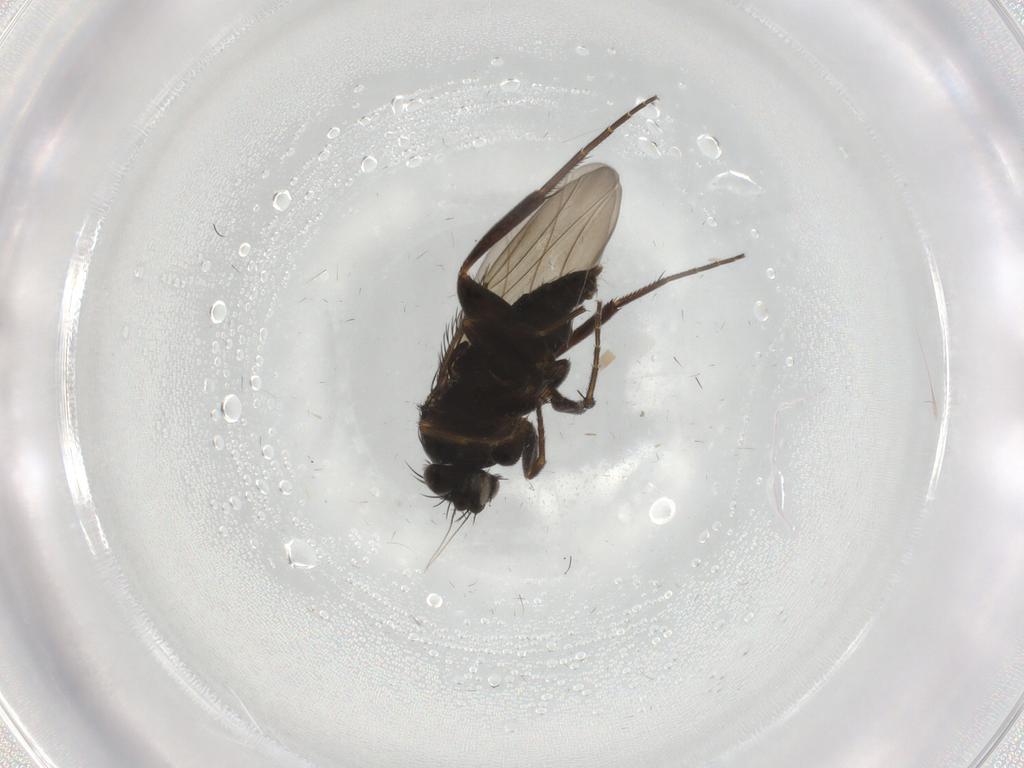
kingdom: Animalia
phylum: Arthropoda
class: Insecta
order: Diptera
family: Phoridae
